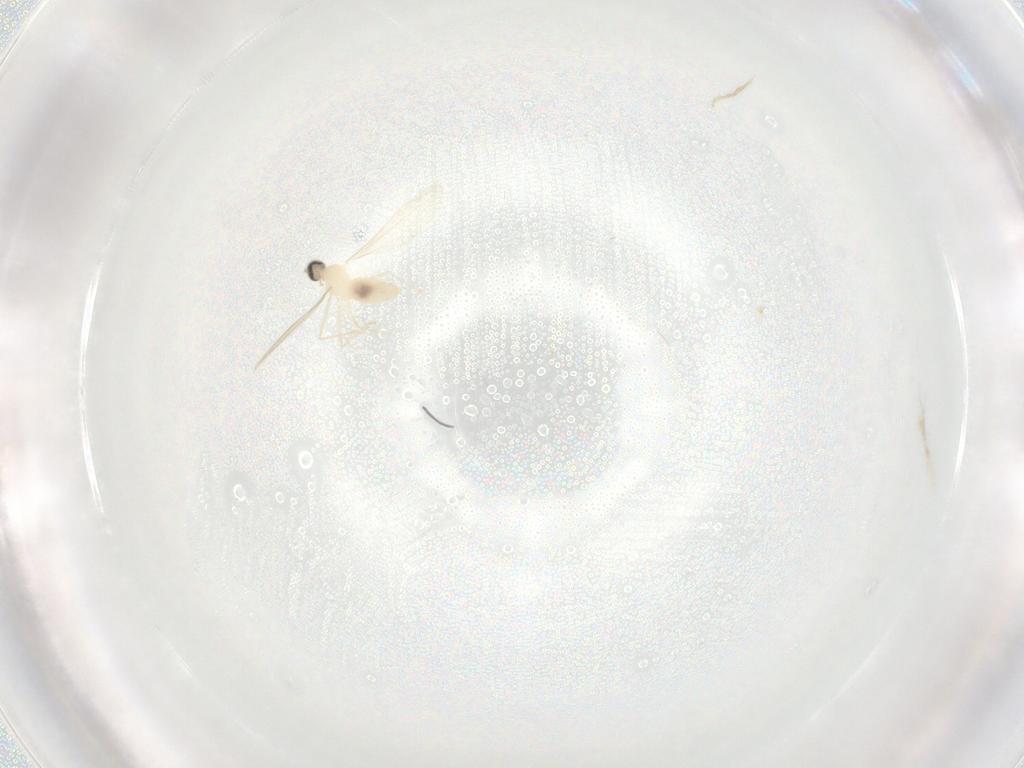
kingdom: Animalia
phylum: Arthropoda
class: Insecta
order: Diptera
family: Cecidomyiidae
